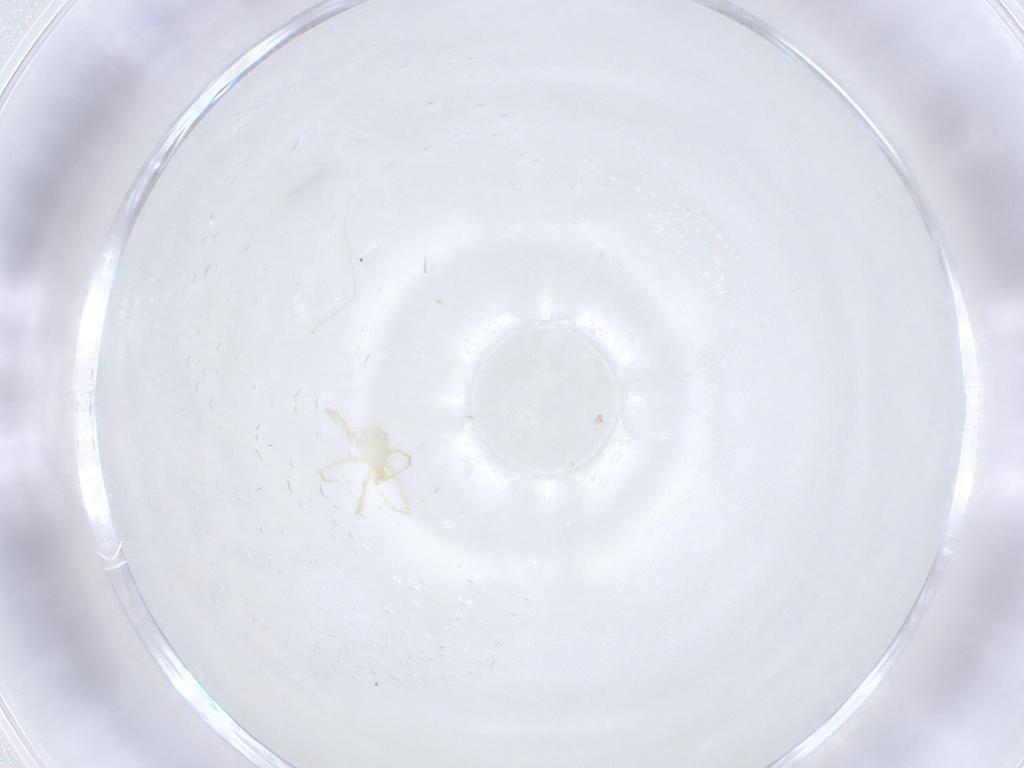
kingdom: Animalia
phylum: Arthropoda
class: Arachnida
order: Trombidiformes
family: Erythraeidae
